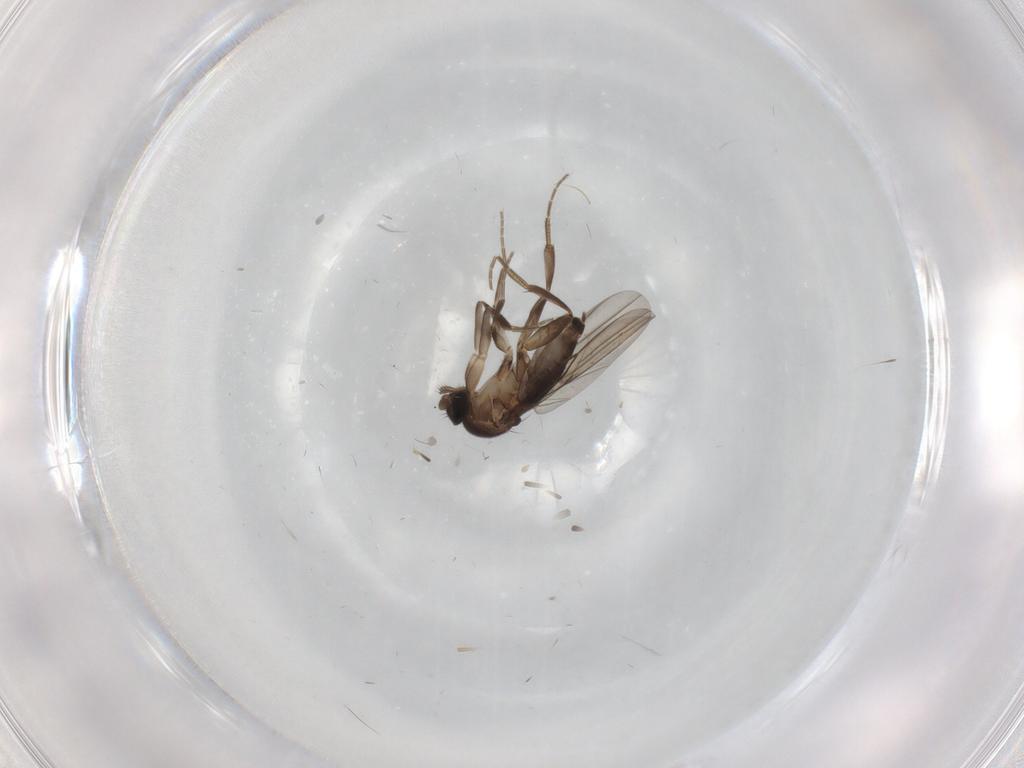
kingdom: Animalia
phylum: Arthropoda
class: Insecta
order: Diptera
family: Phoridae
